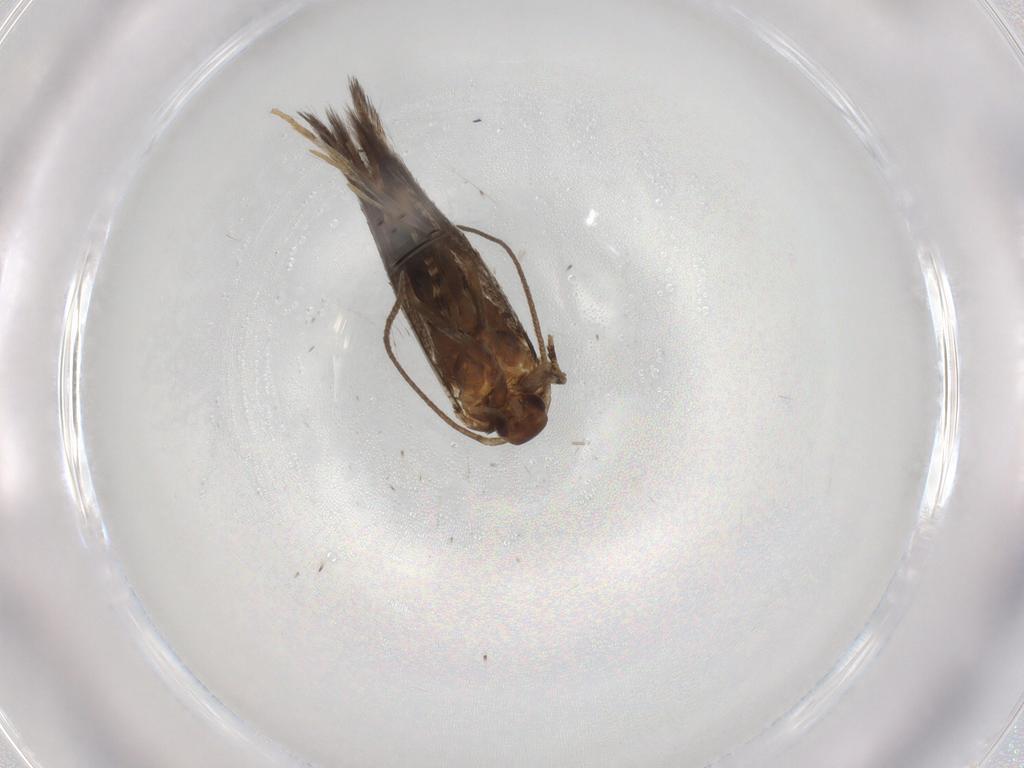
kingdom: Animalia
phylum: Arthropoda
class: Insecta
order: Lepidoptera
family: Elachistidae
